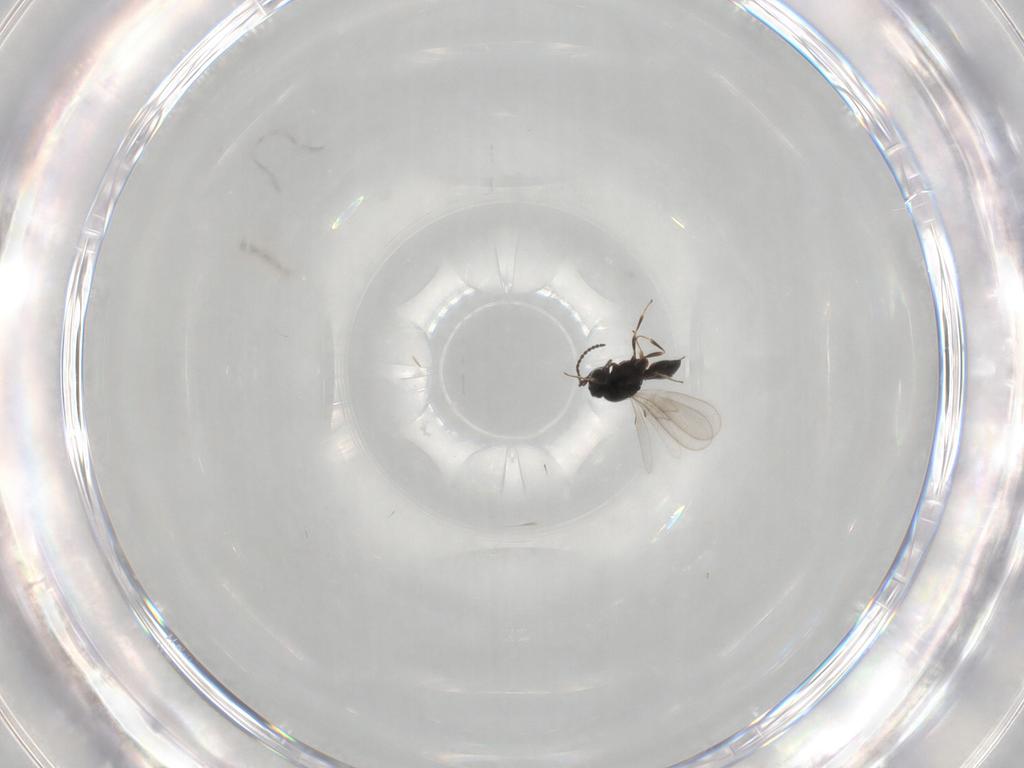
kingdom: Animalia
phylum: Arthropoda
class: Insecta
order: Hymenoptera
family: Scelionidae
